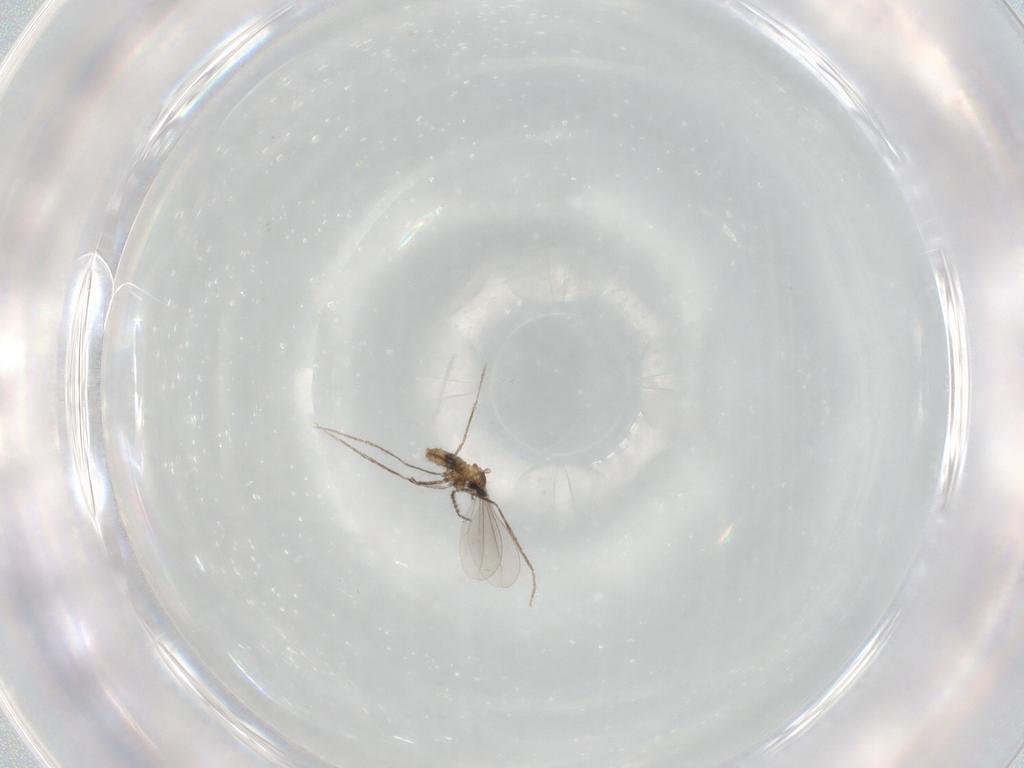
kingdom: Animalia
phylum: Arthropoda
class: Insecta
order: Diptera
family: Cecidomyiidae
